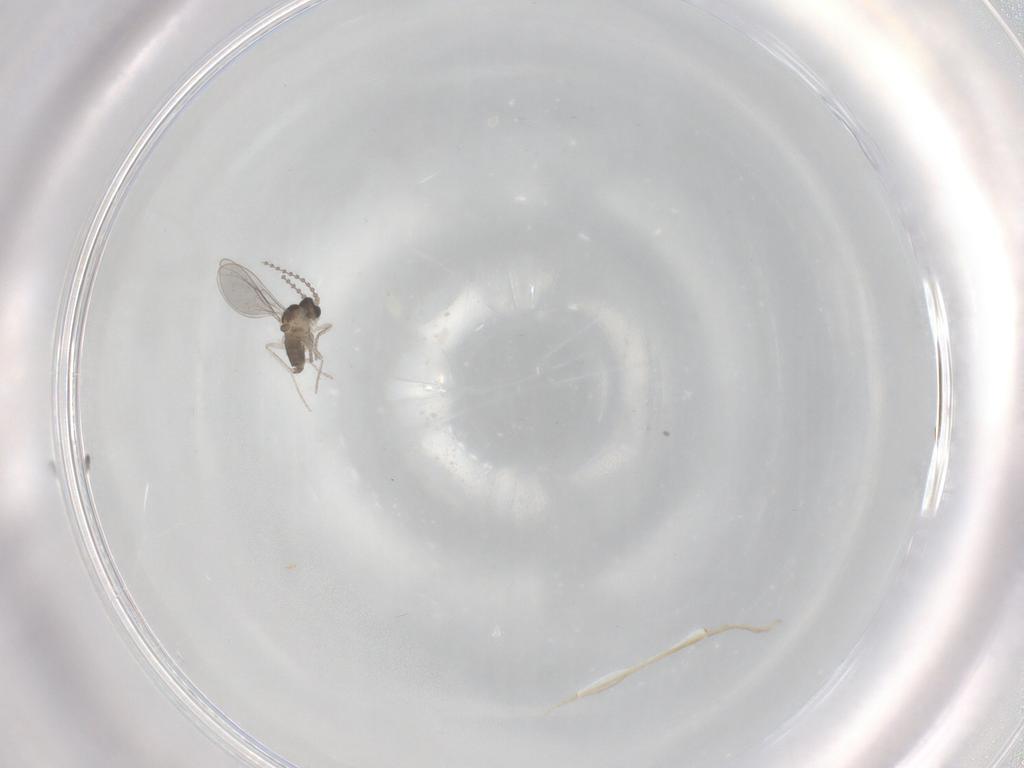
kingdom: Animalia
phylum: Arthropoda
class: Insecta
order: Diptera
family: Cecidomyiidae
